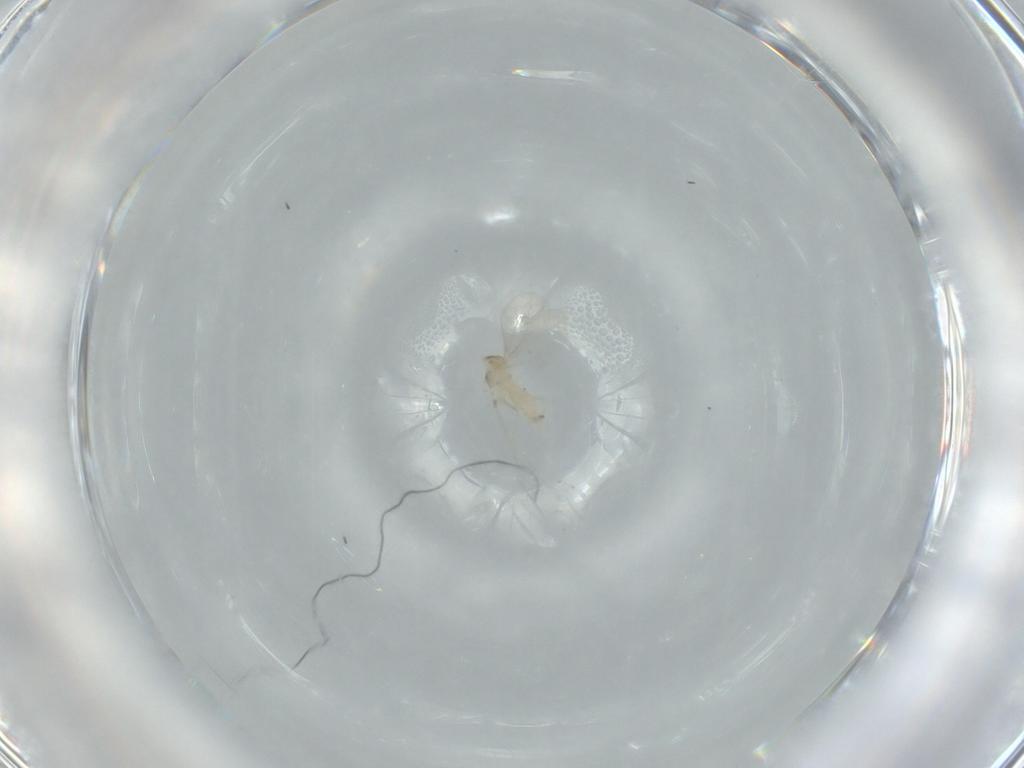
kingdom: Animalia
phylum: Arthropoda
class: Insecta
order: Diptera
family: Cecidomyiidae
